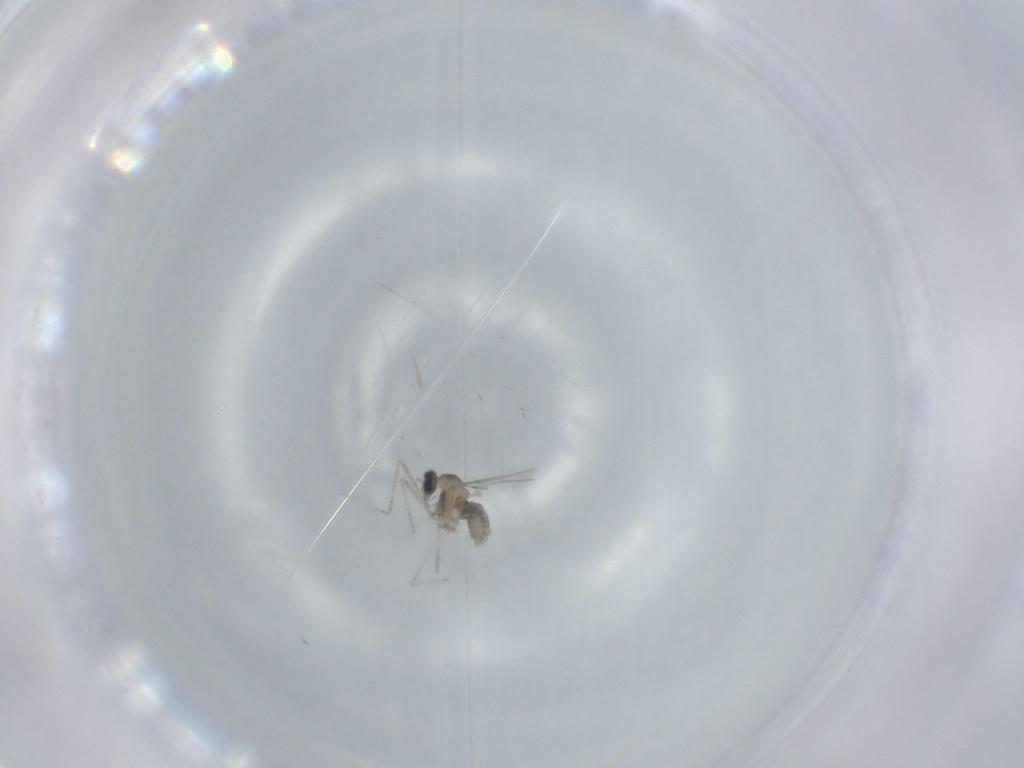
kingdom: Animalia
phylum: Arthropoda
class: Insecta
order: Diptera
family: Cecidomyiidae
